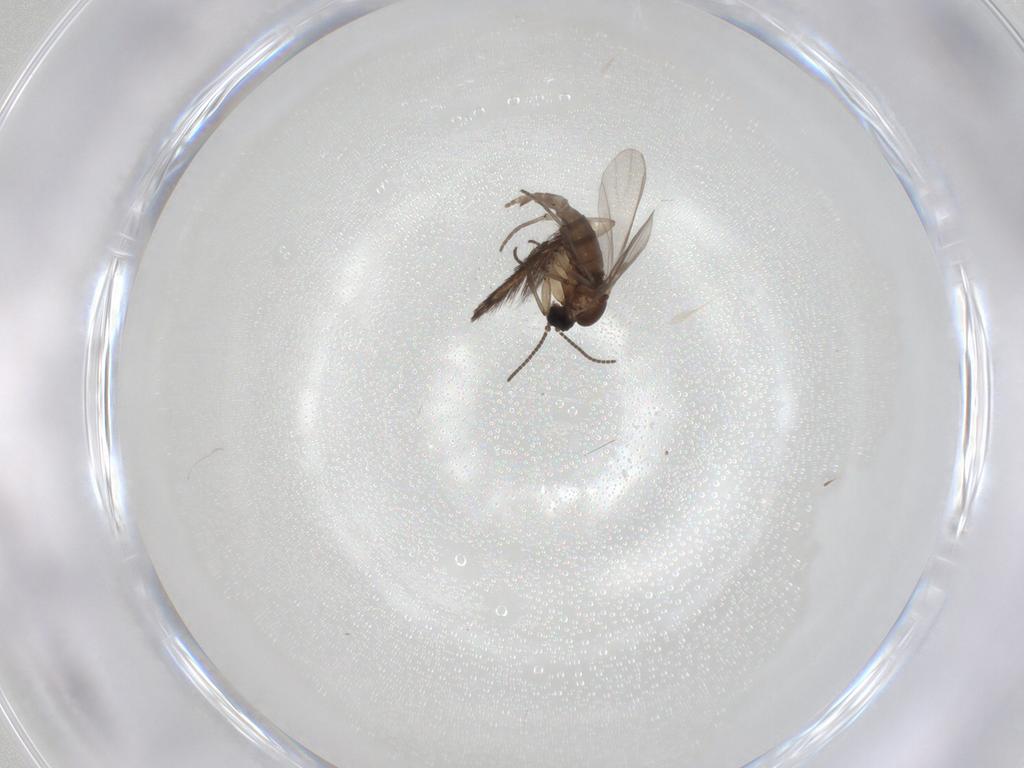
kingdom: Animalia
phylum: Arthropoda
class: Insecta
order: Diptera
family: Sciaridae
